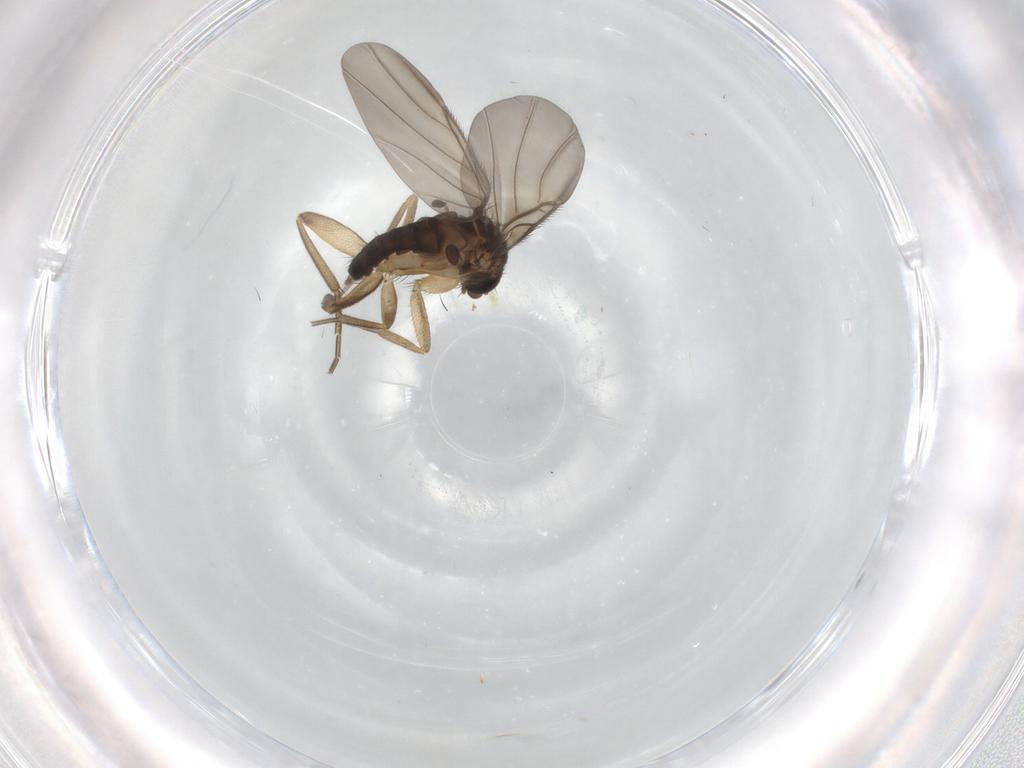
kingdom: Animalia
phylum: Arthropoda
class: Insecta
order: Diptera
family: Phoridae
